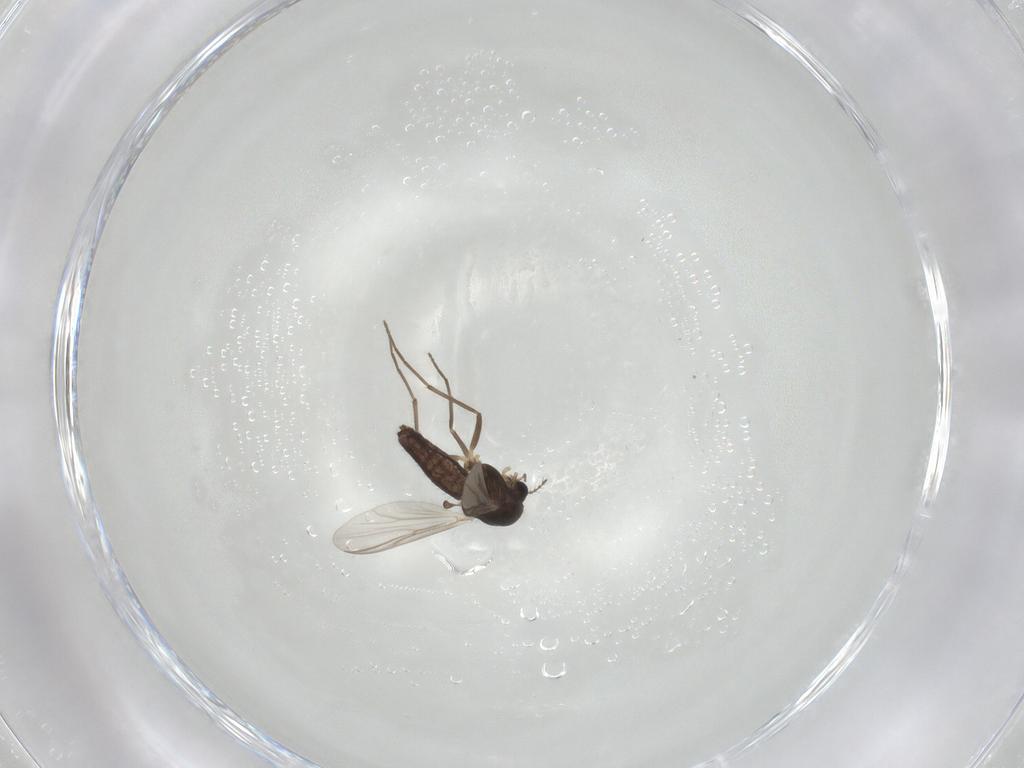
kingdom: Animalia
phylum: Arthropoda
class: Insecta
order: Diptera
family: Chironomidae
